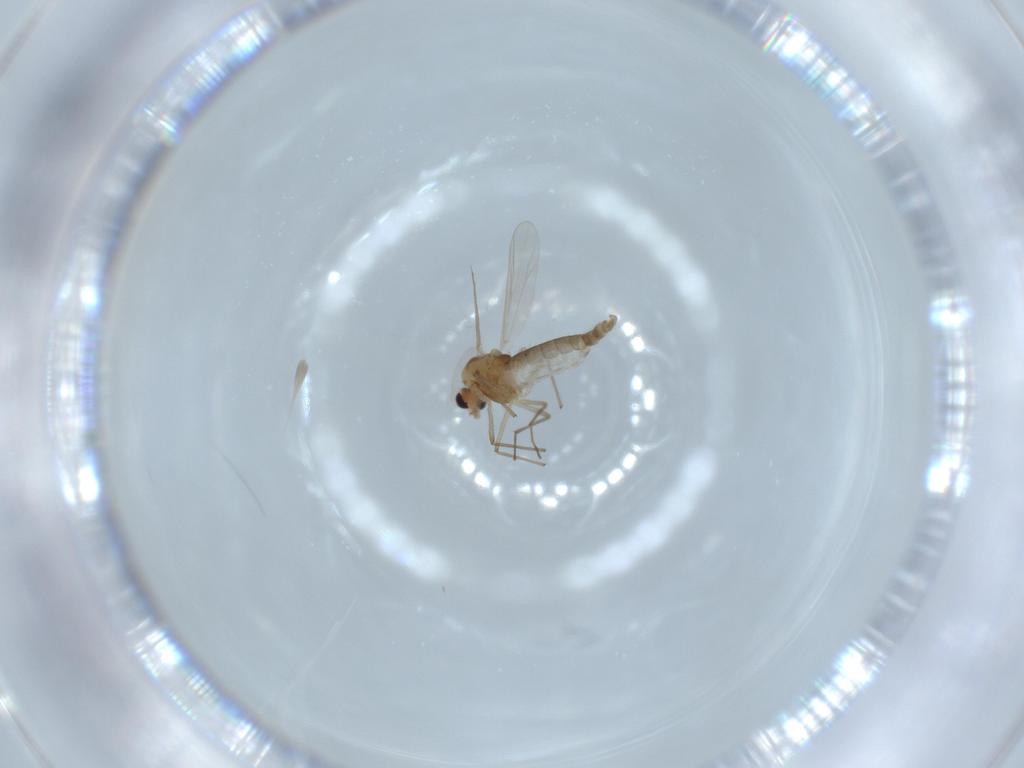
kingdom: Animalia
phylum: Arthropoda
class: Insecta
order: Diptera
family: Chironomidae
